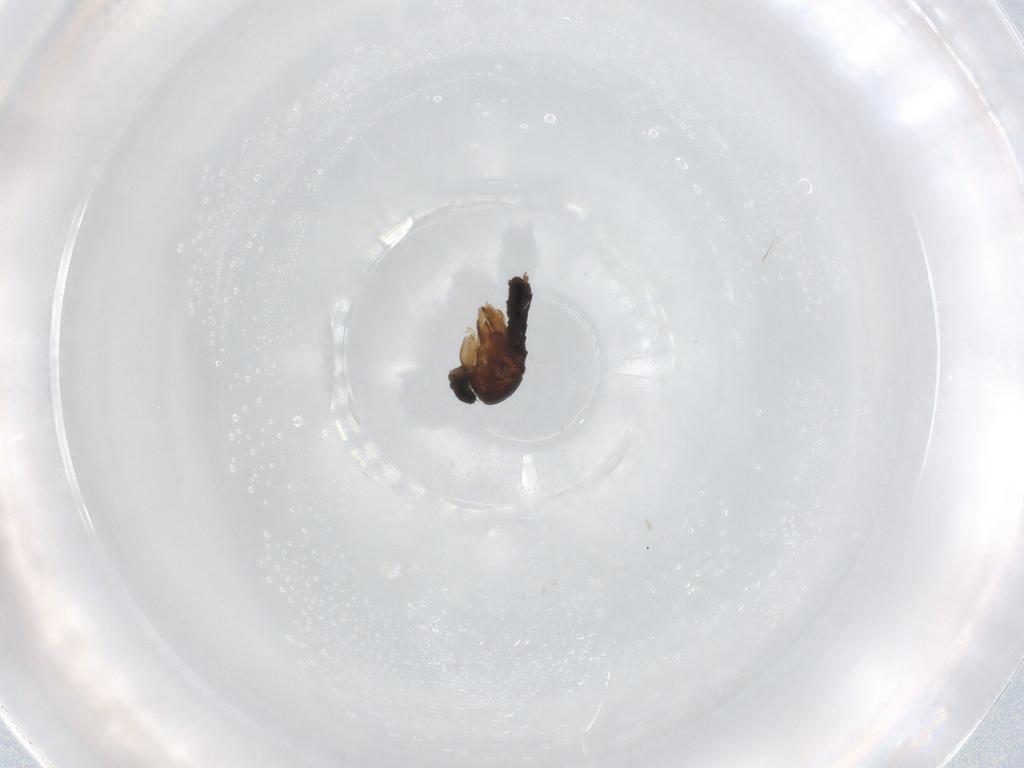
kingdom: Animalia
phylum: Arthropoda
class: Insecta
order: Diptera
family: Phoridae
